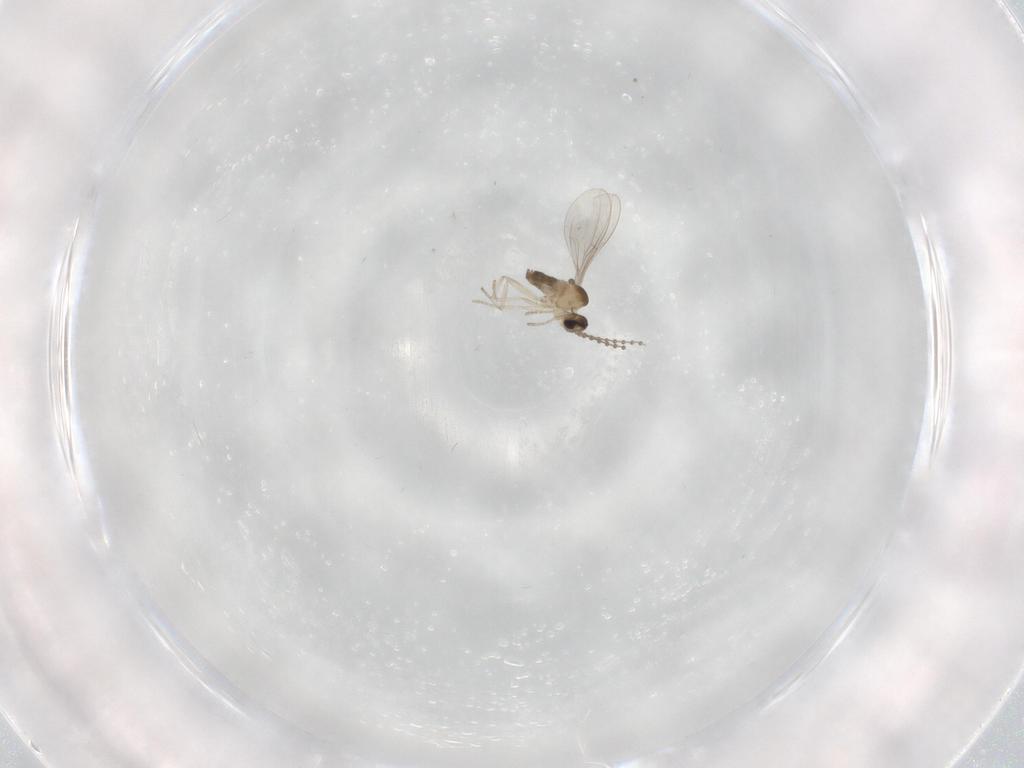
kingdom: Animalia
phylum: Arthropoda
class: Insecta
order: Diptera
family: Cecidomyiidae
